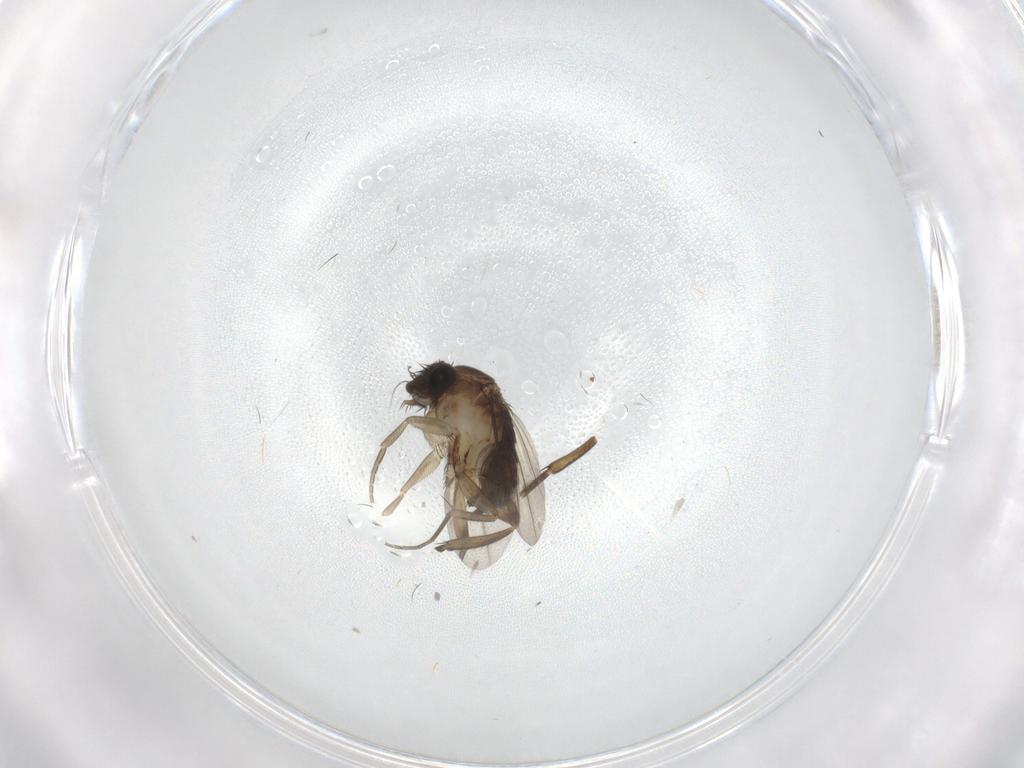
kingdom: Animalia
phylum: Arthropoda
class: Insecta
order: Diptera
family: Phoridae
